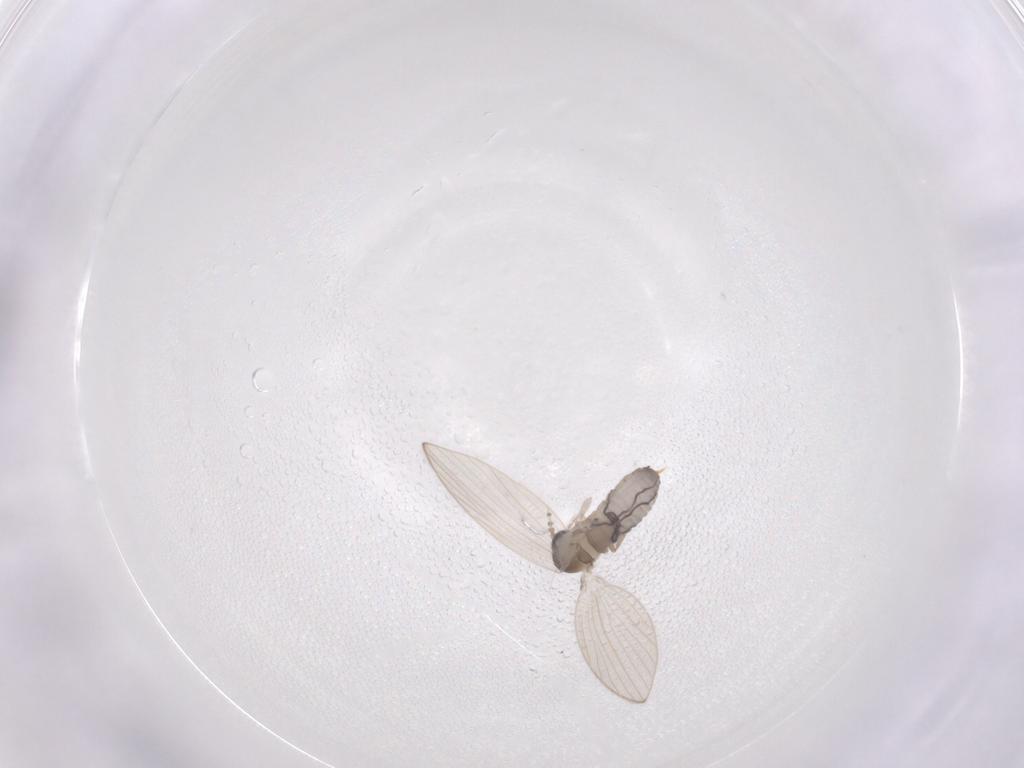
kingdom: Animalia
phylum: Arthropoda
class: Insecta
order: Diptera
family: Psychodidae
